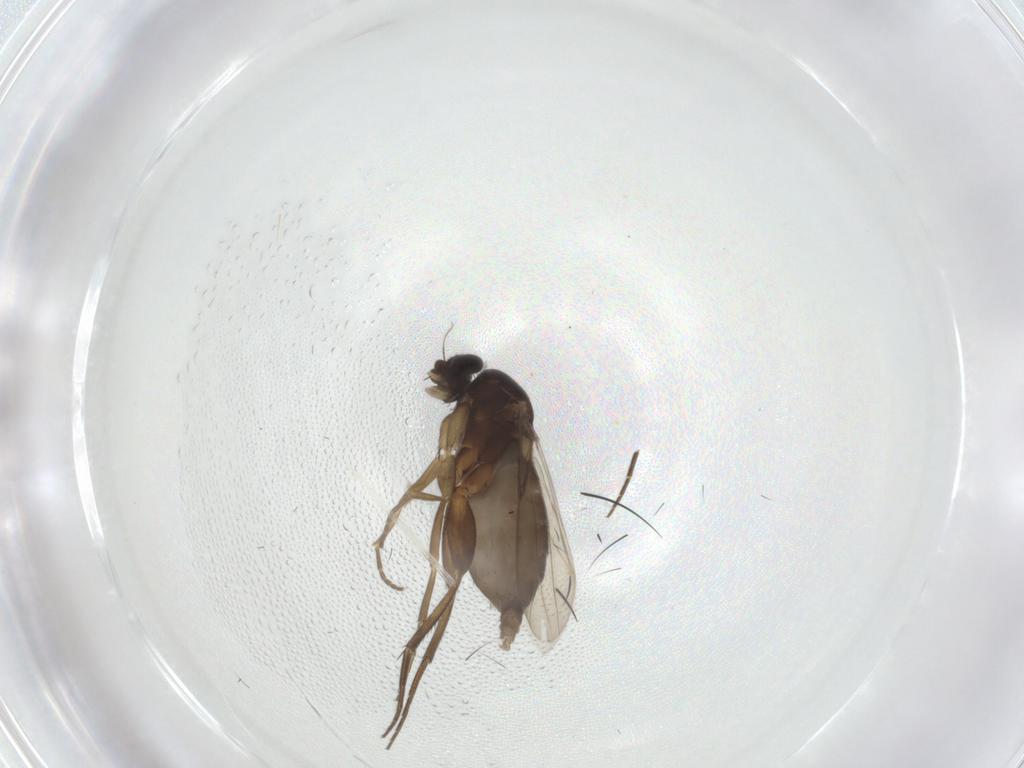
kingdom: Animalia
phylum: Arthropoda
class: Insecta
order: Diptera
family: Phoridae
